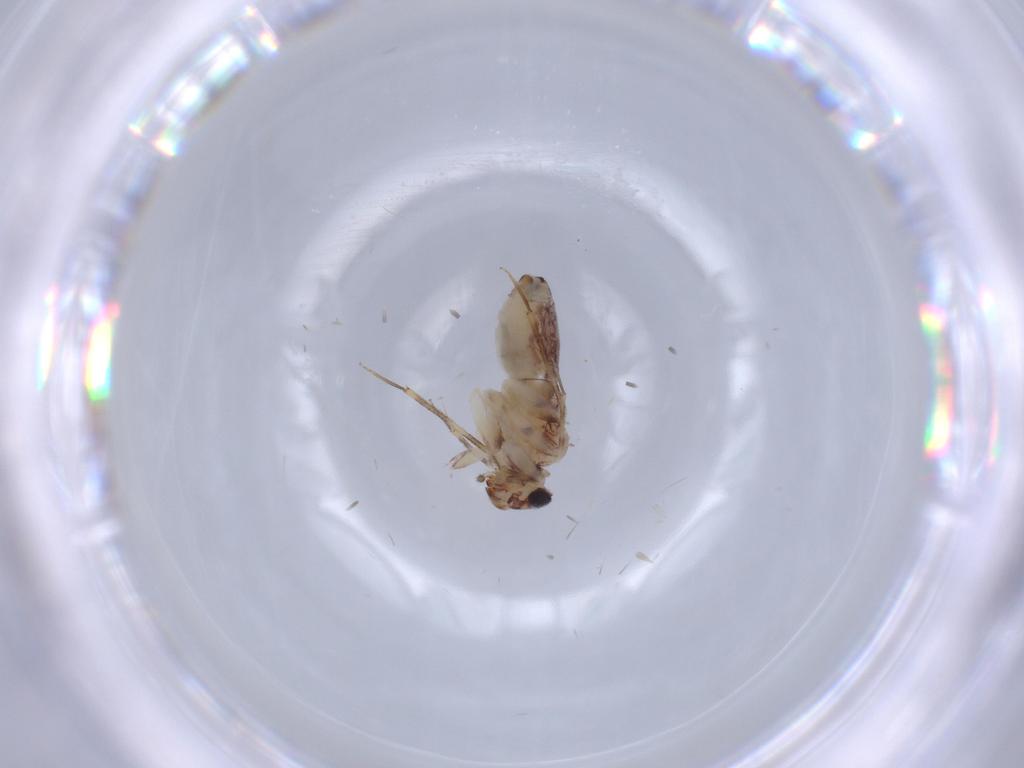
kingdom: Animalia
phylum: Arthropoda
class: Insecta
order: Psocodea
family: Lepidopsocidae
